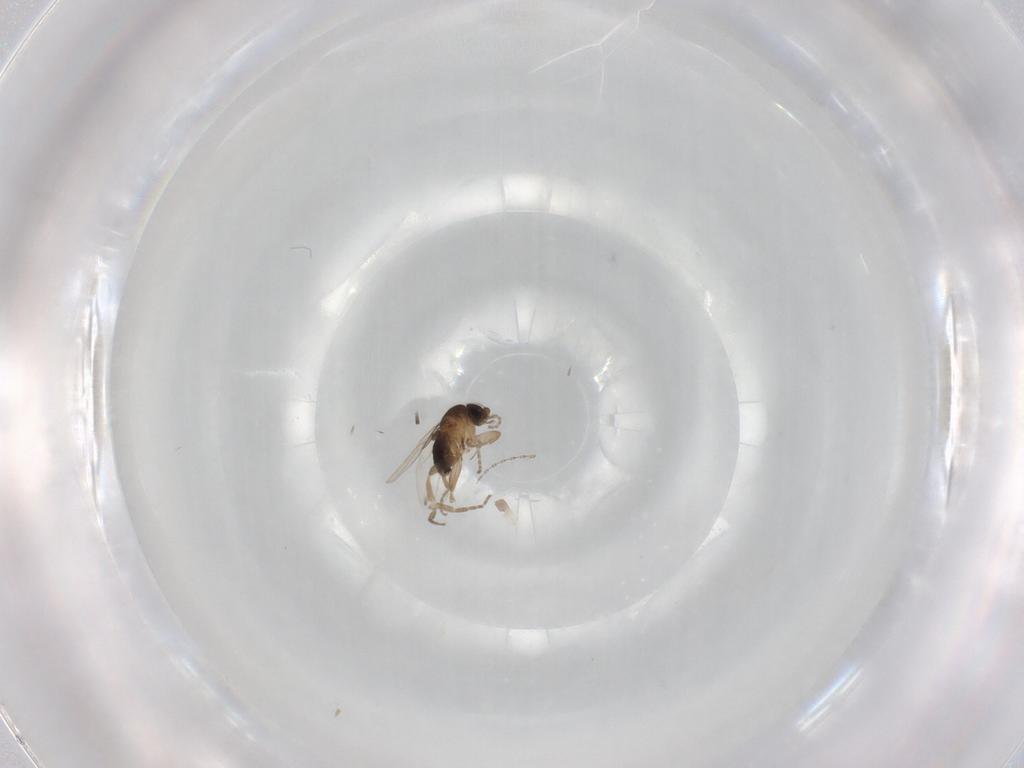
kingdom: Animalia
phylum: Arthropoda
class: Insecta
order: Diptera
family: Cecidomyiidae
